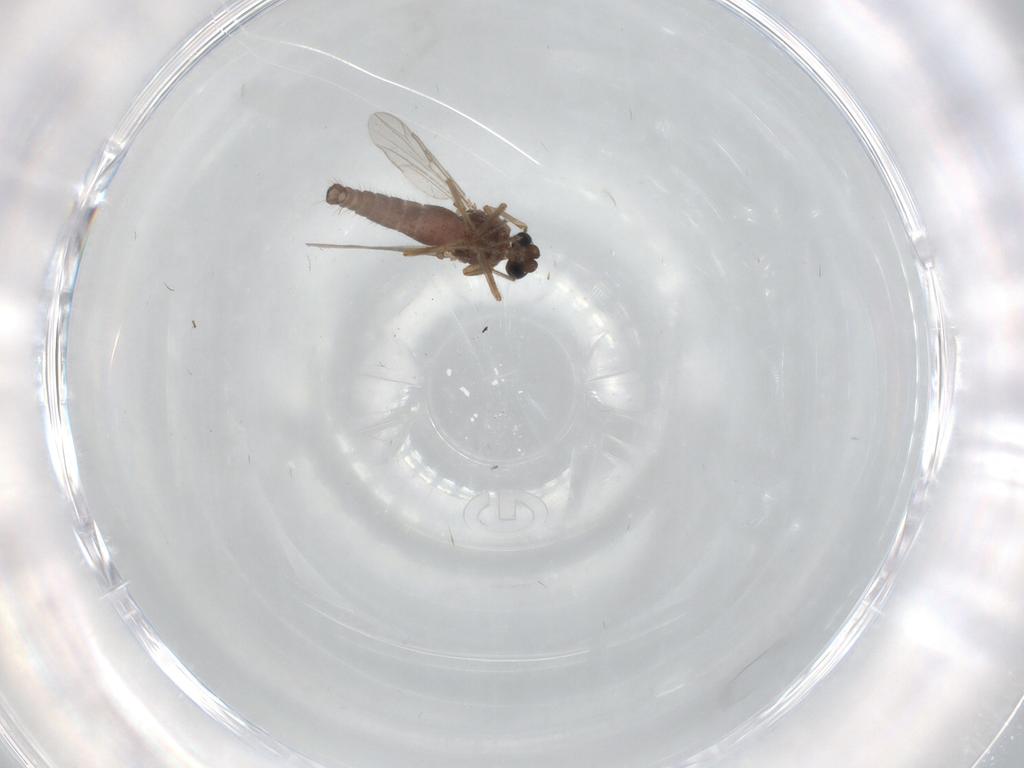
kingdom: Animalia
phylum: Arthropoda
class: Insecta
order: Diptera
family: Ceratopogonidae
